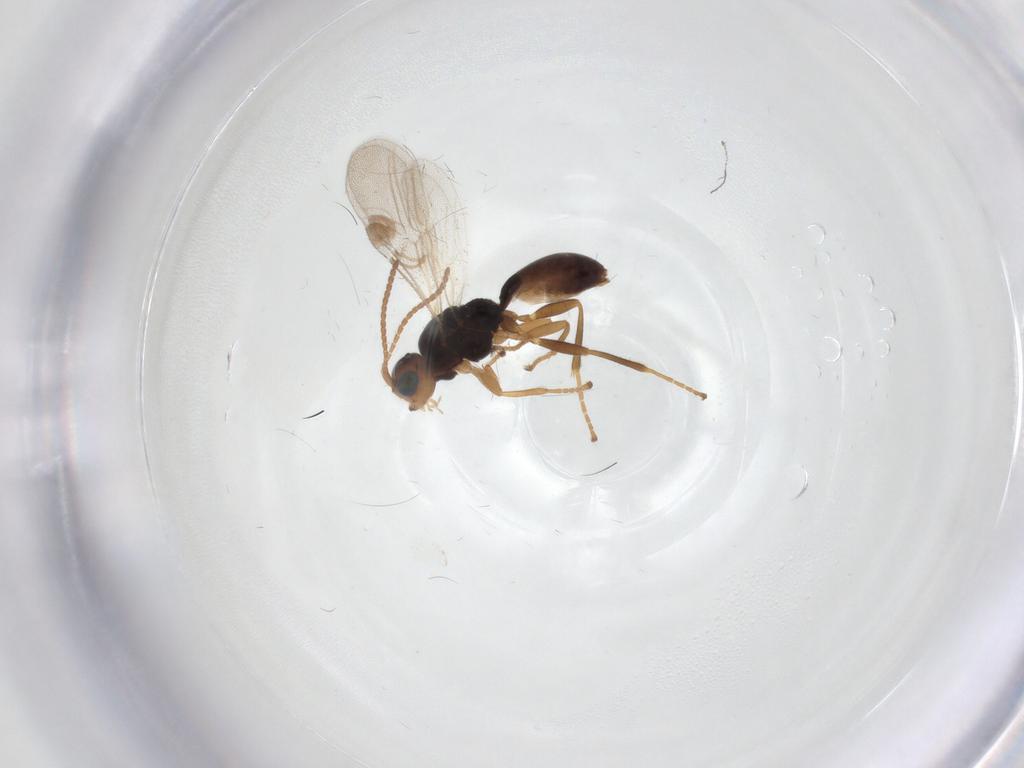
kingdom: Animalia
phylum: Arthropoda
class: Insecta
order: Hymenoptera
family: Braconidae
